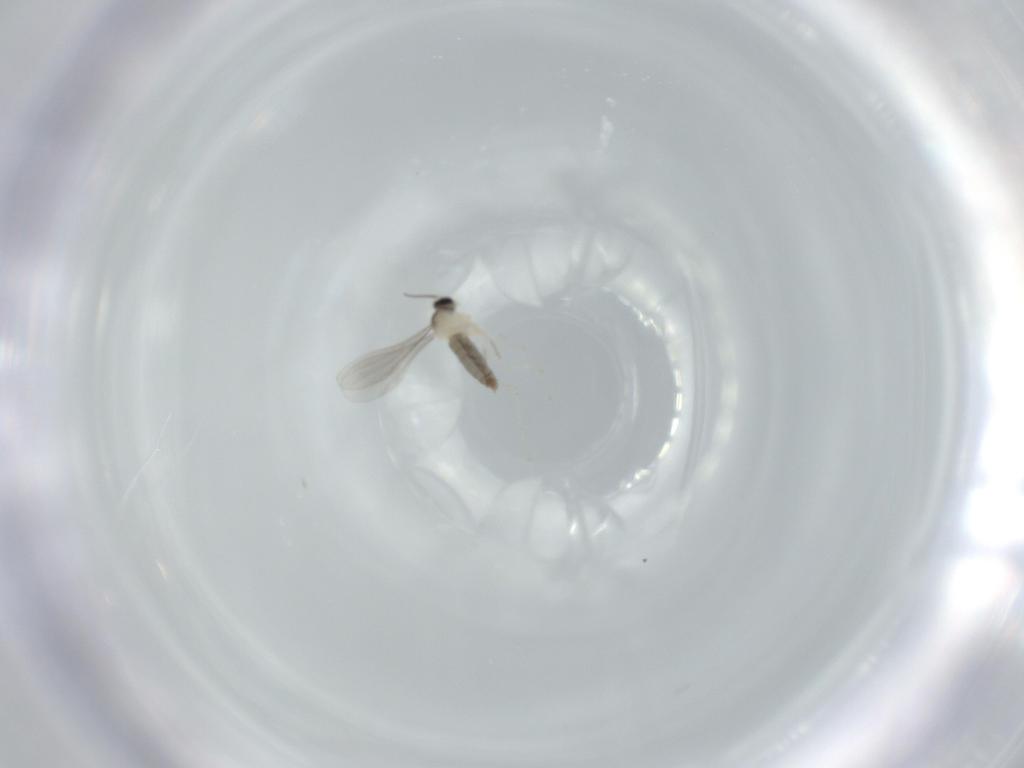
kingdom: Animalia
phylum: Arthropoda
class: Insecta
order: Diptera
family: Cecidomyiidae
